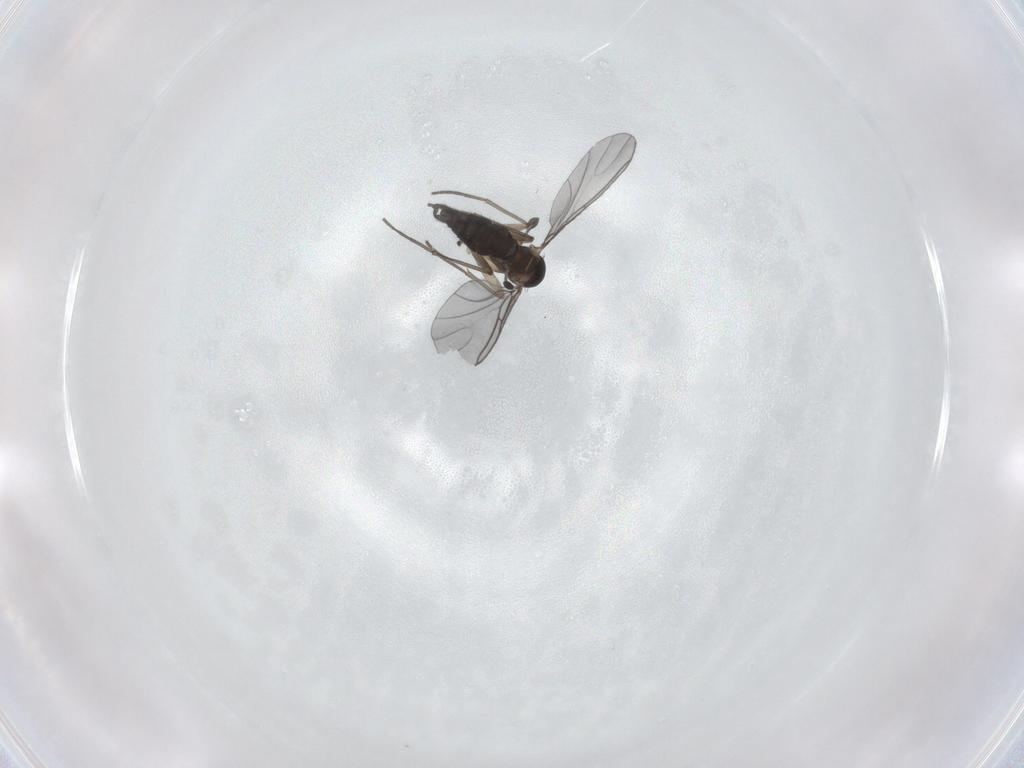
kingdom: Animalia
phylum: Arthropoda
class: Insecta
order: Diptera
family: Sciaridae
